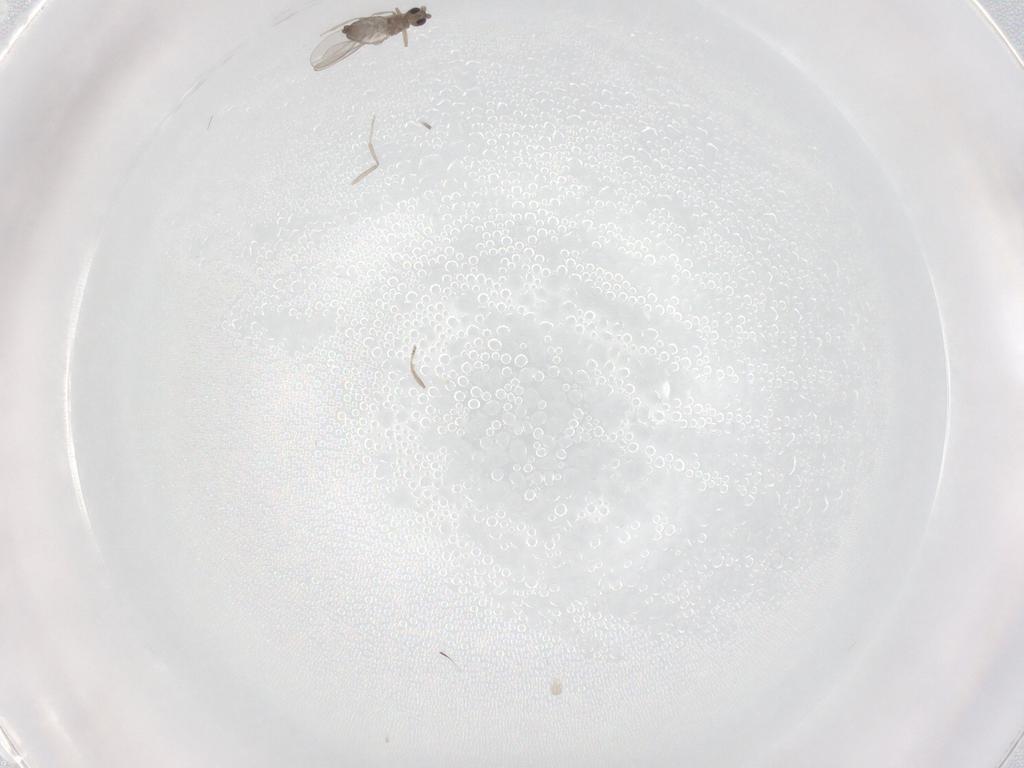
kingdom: Animalia
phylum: Arthropoda
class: Insecta
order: Diptera
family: Cecidomyiidae
